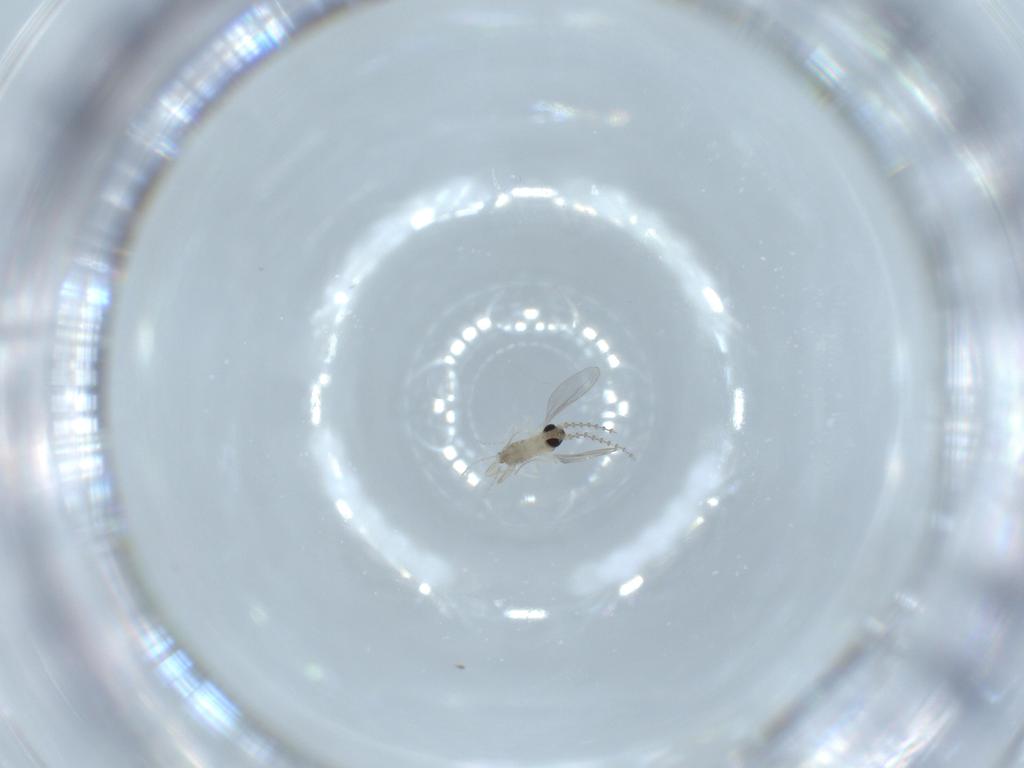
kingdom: Animalia
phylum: Arthropoda
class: Insecta
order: Diptera
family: Cecidomyiidae
